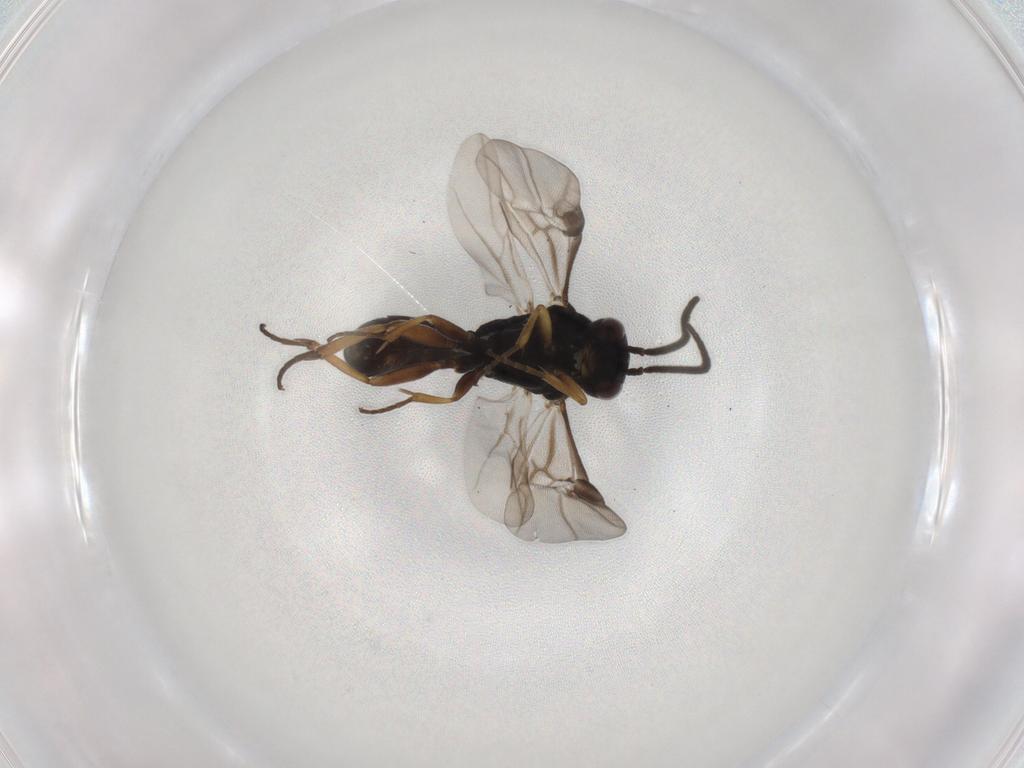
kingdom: Animalia
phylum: Arthropoda
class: Insecta
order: Hymenoptera
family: Braconidae
